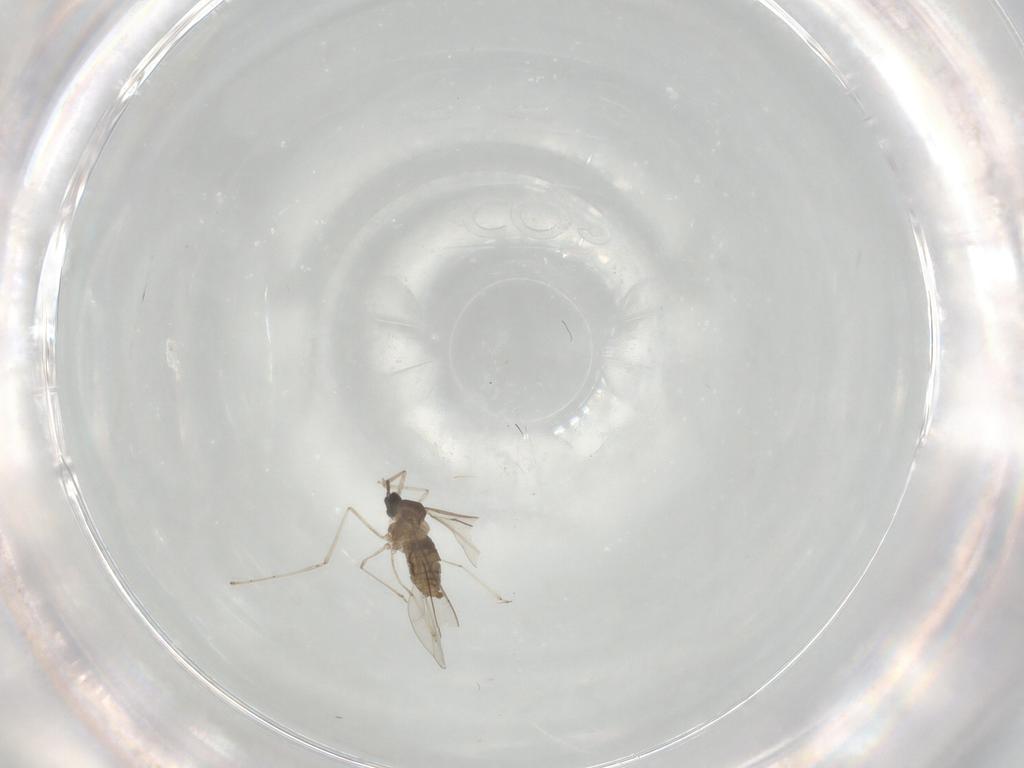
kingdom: Animalia
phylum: Arthropoda
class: Insecta
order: Diptera
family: Cecidomyiidae
